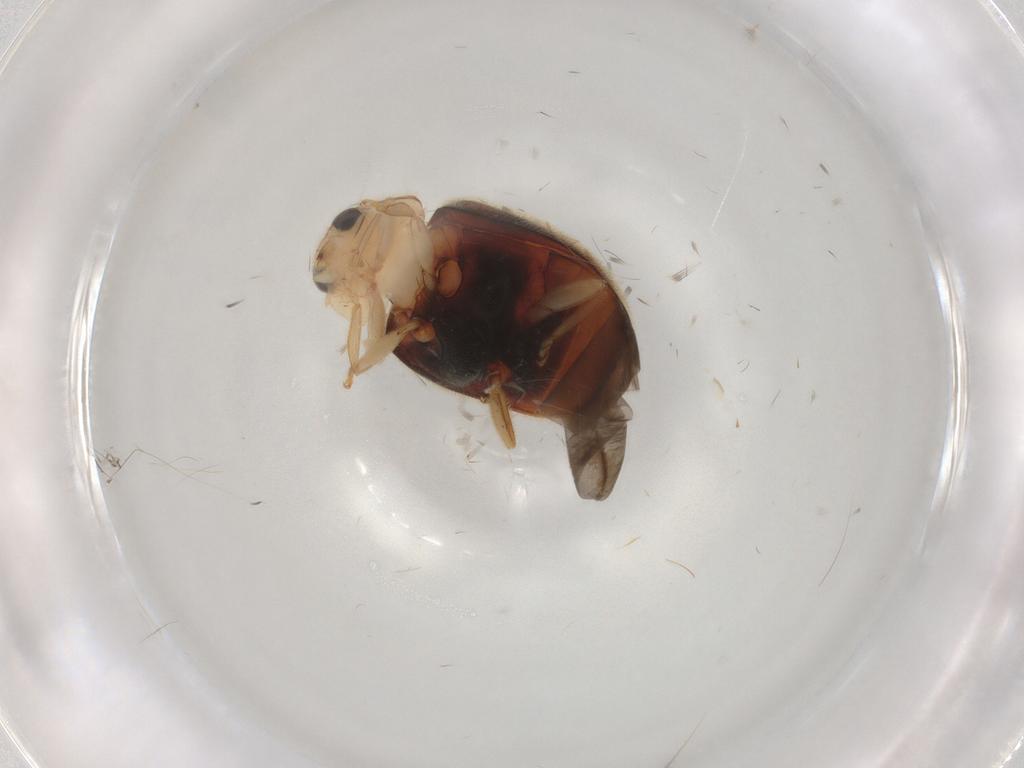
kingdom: Animalia
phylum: Arthropoda
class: Insecta
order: Coleoptera
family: Coccinellidae
